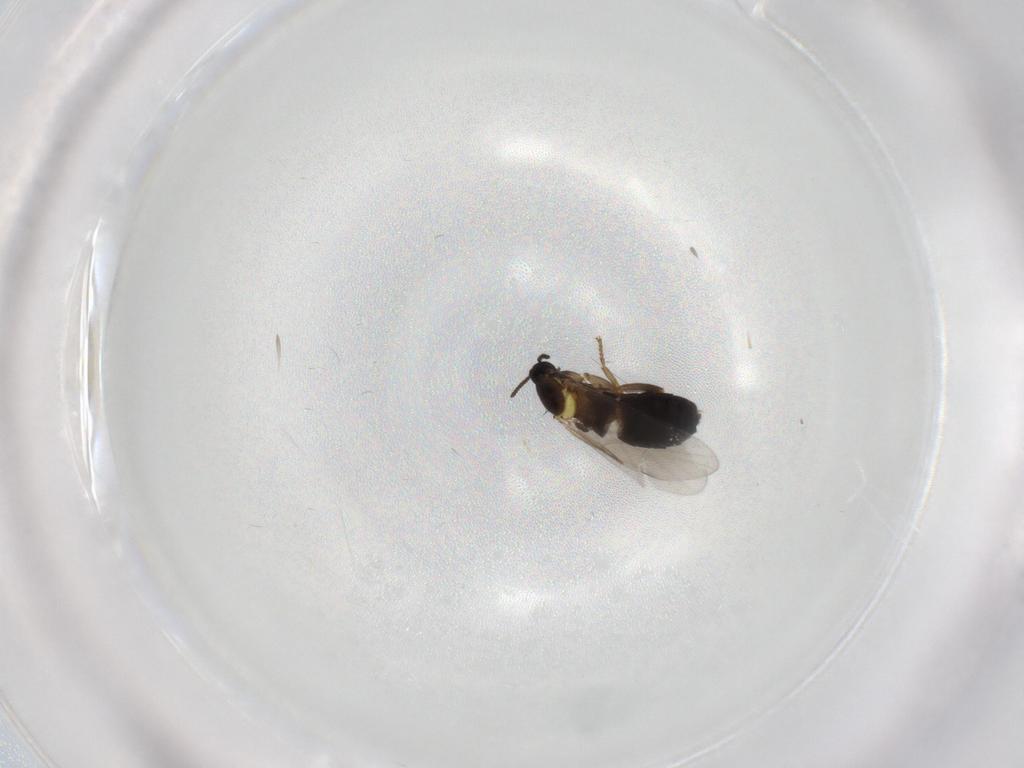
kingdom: Animalia
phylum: Arthropoda
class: Insecta
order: Diptera
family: Scatopsidae
